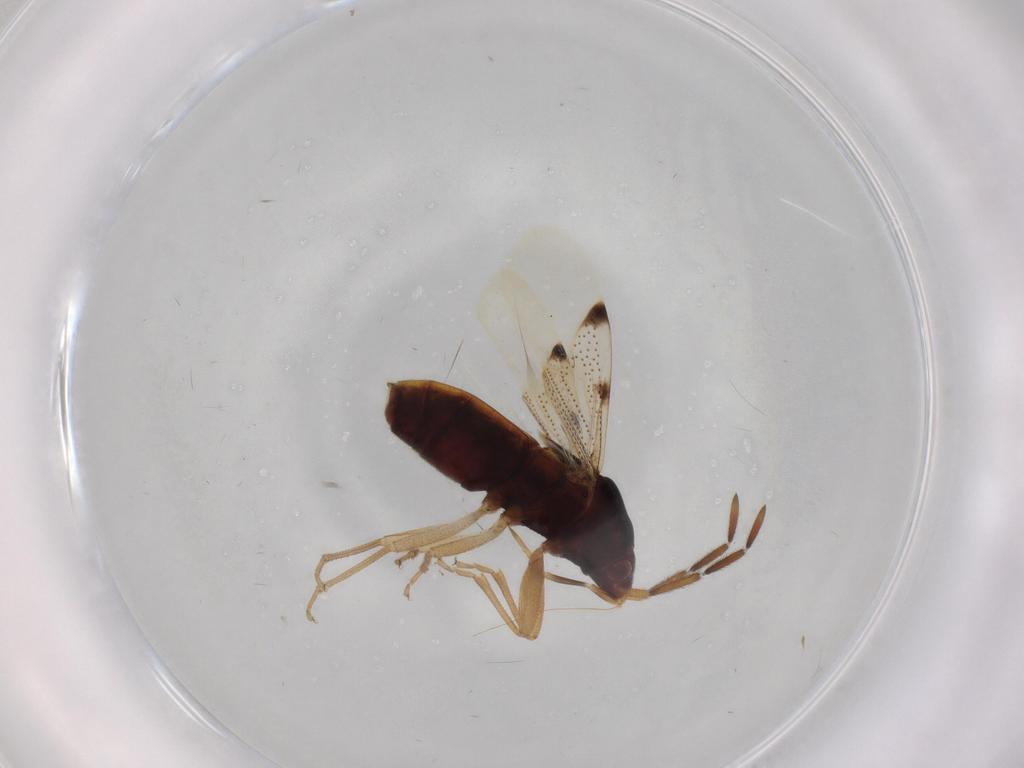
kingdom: Animalia
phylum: Arthropoda
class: Insecta
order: Hemiptera
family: Rhyparochromidae
